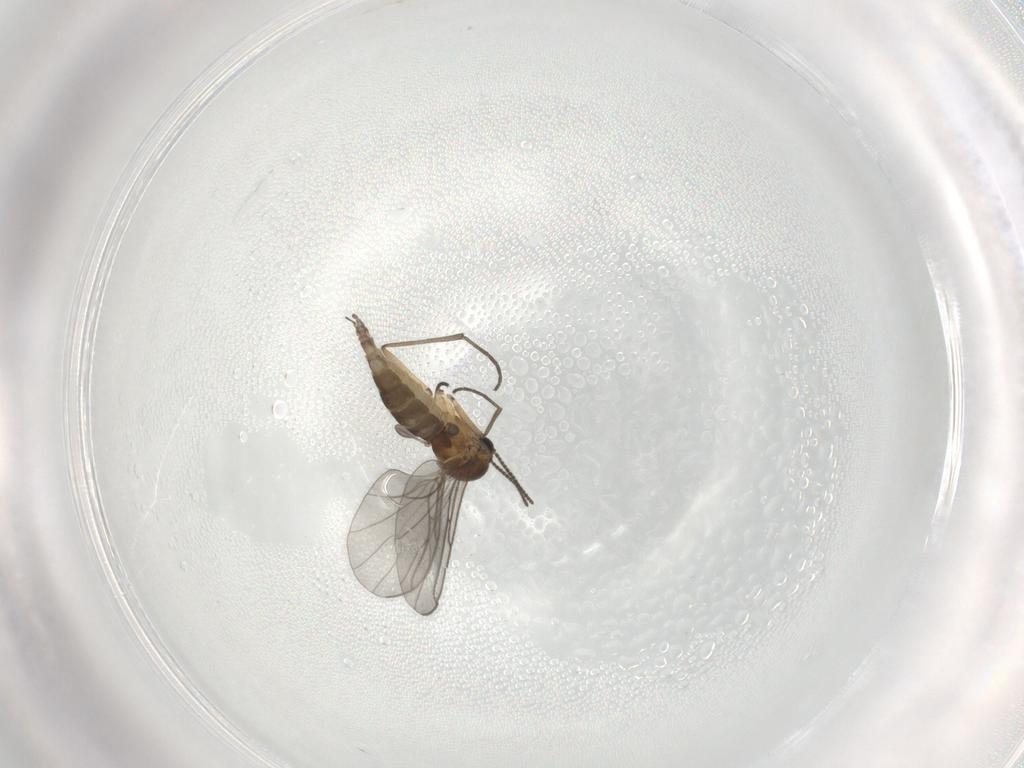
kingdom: Animalia
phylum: Arthropoda
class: Insecta
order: Diptera
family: Sciaridae
